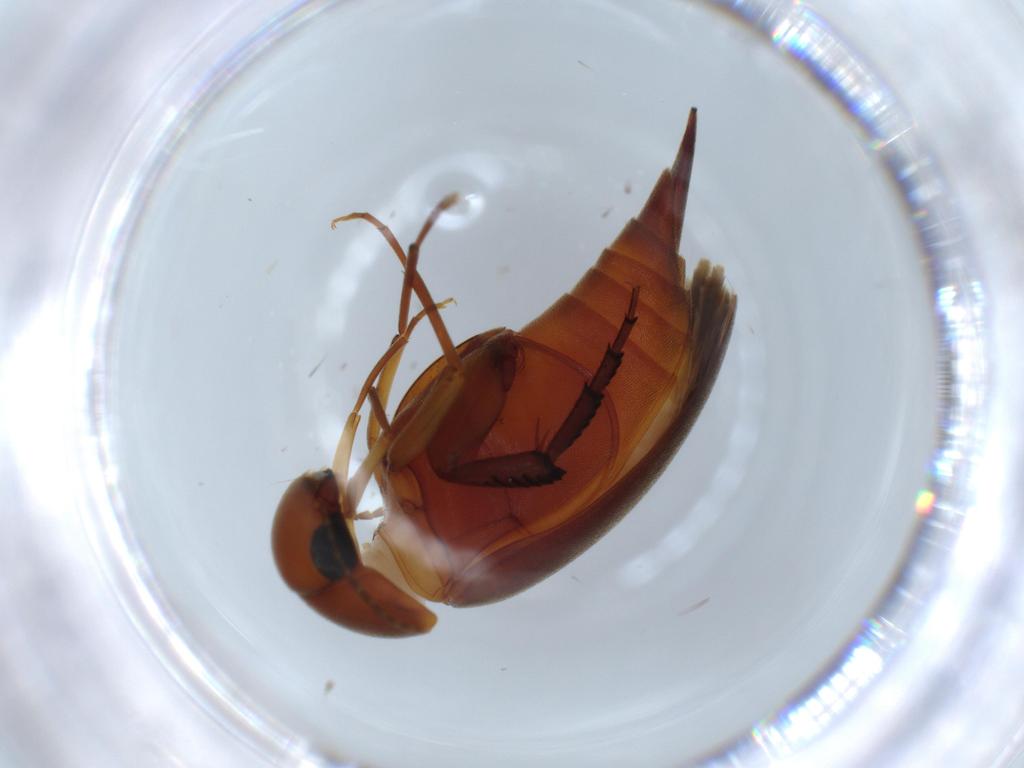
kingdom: Animalia
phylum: Arthropoda
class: Insecta
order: Coleoptera
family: Mordellidae
